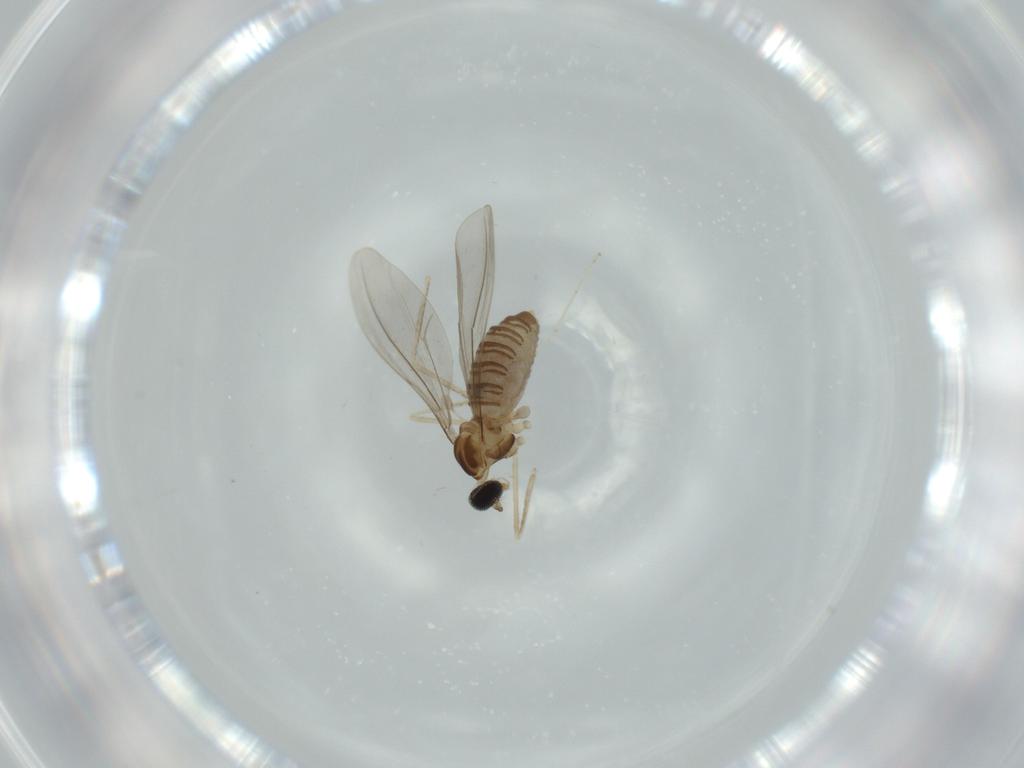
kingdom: Animalia
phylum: Arthropoda
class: Insecta
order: Diptera
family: Cecidomyiidae
